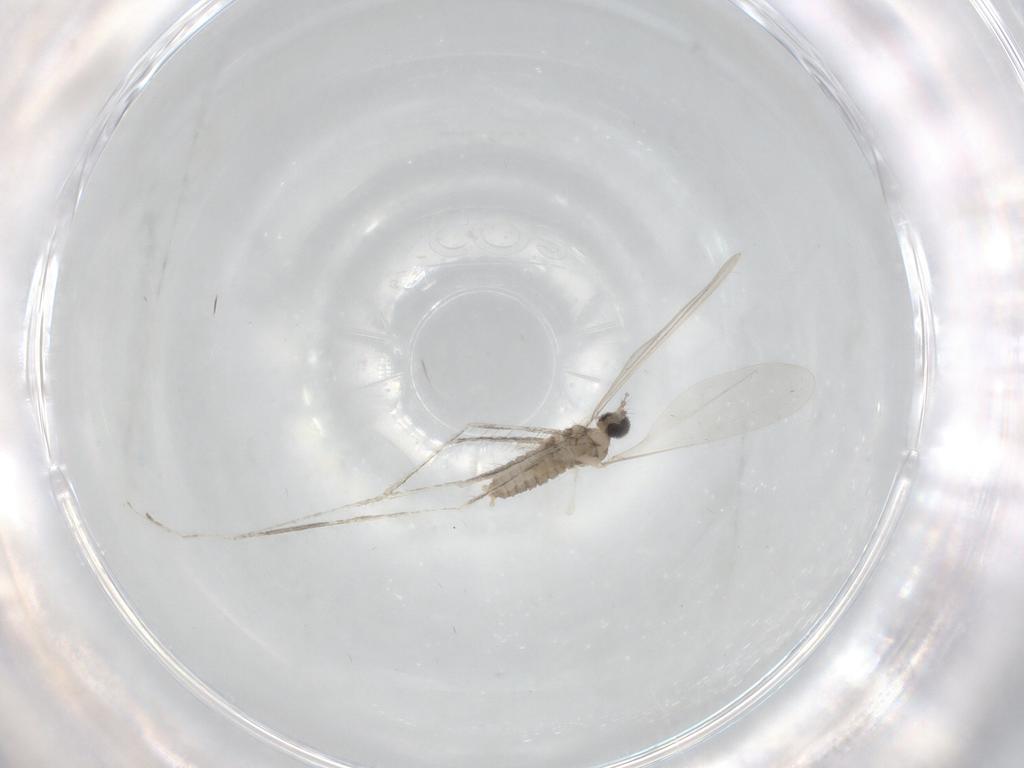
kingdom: Animalia
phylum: Arthropoda
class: Insecta
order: Diptera
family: Cecidomyiidae
